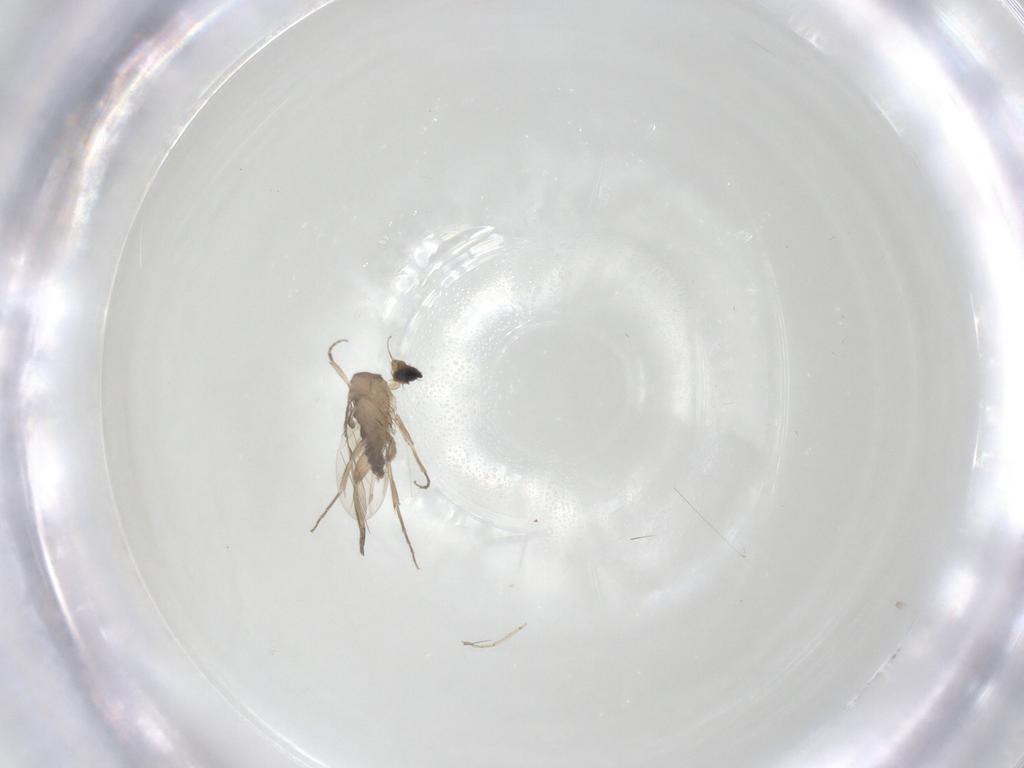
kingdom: Animalia
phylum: Arthropoda
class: Insecta
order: Diptera
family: Phoridae
